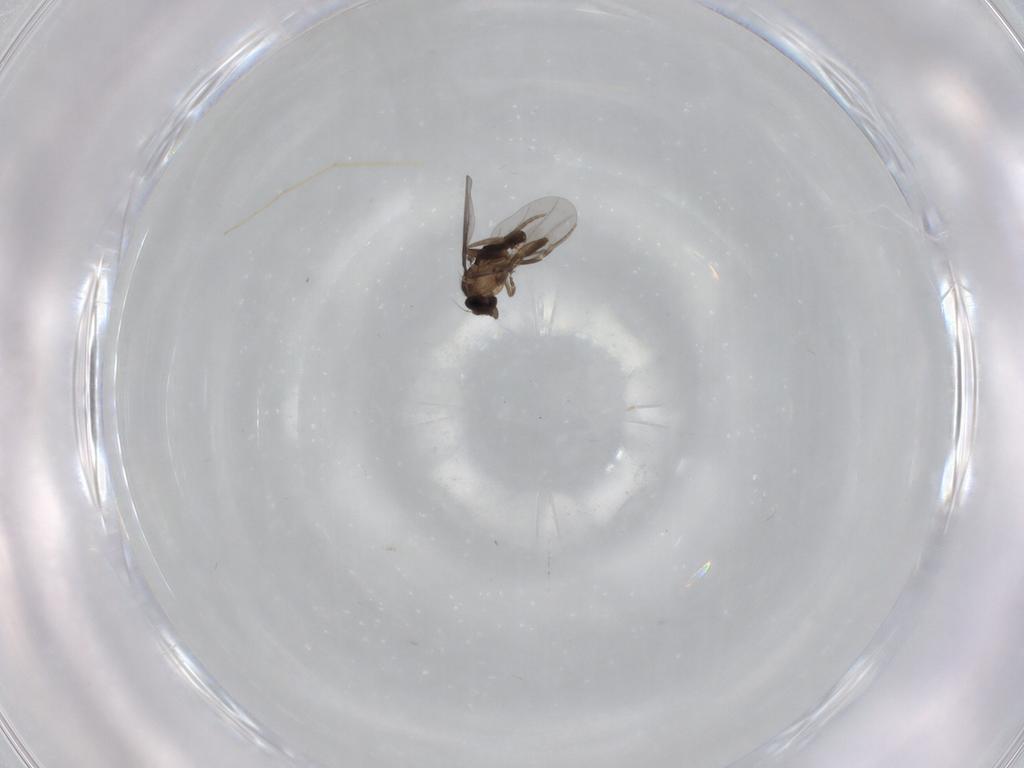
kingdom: Animalia
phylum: Arthropoda
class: Insecta
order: Diptera
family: Chironomidae
